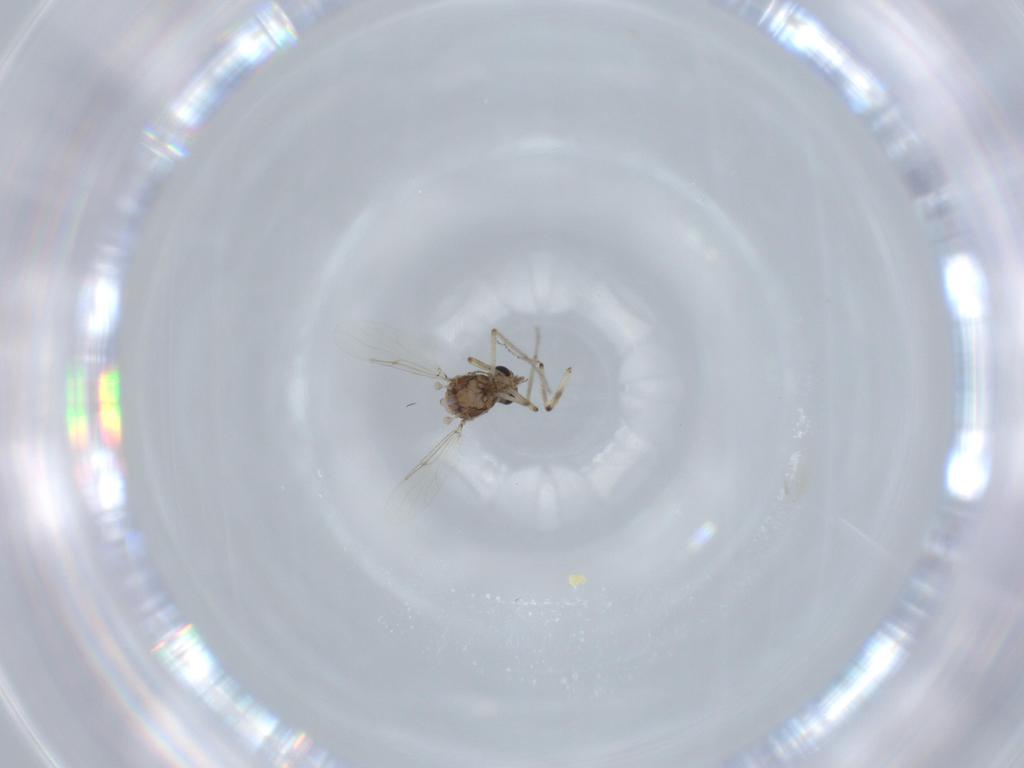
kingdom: Animalia
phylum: Arthropoda
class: Insecta
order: Diptera
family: Ceratopogonidae
